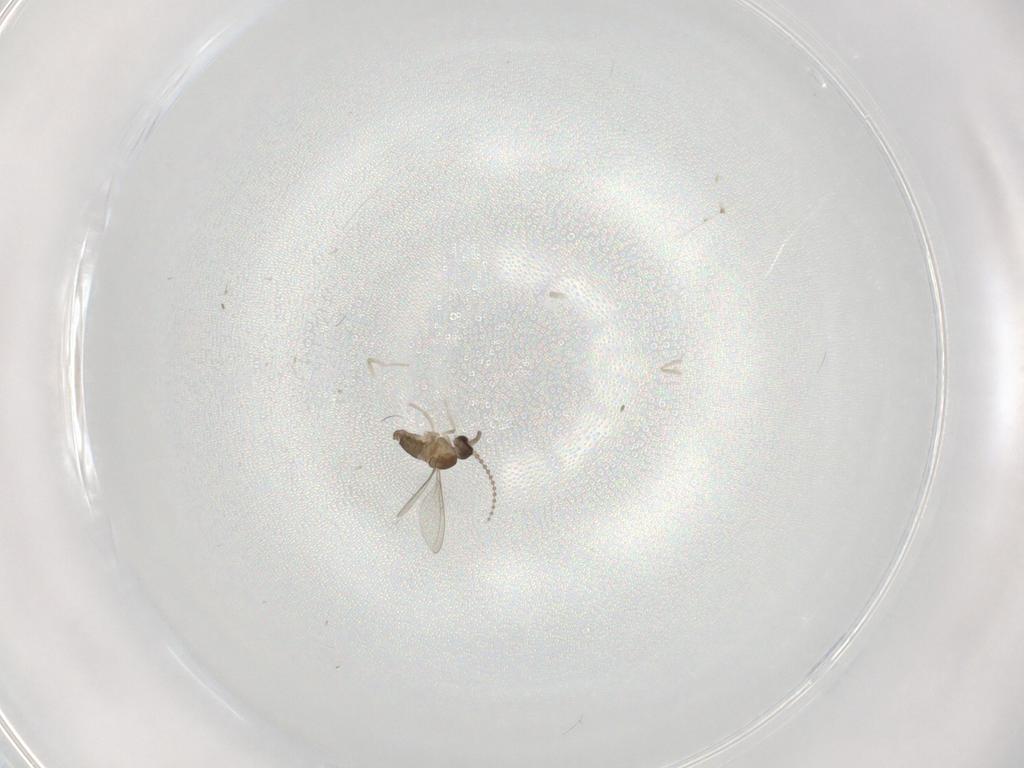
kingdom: Animalia
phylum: Arthropoda
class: Insecta
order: Diptera
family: Cecidomyiidae
